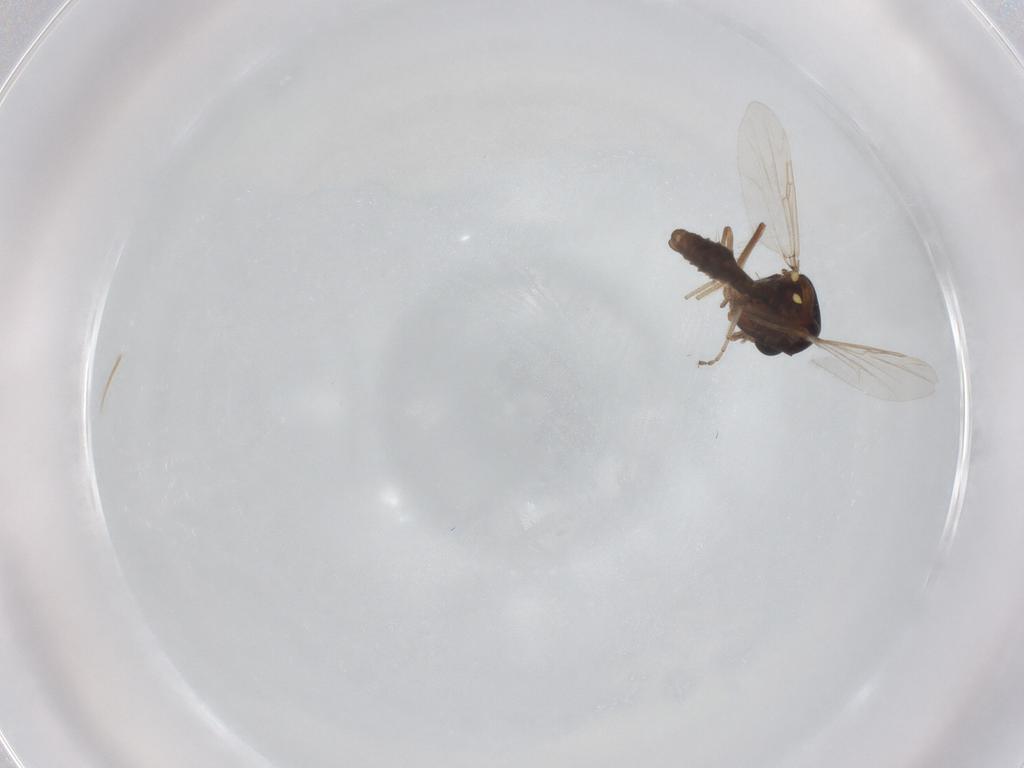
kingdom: Animalia
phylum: Arthropoda
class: Insecta
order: Diptera
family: Ceratopogonidae
